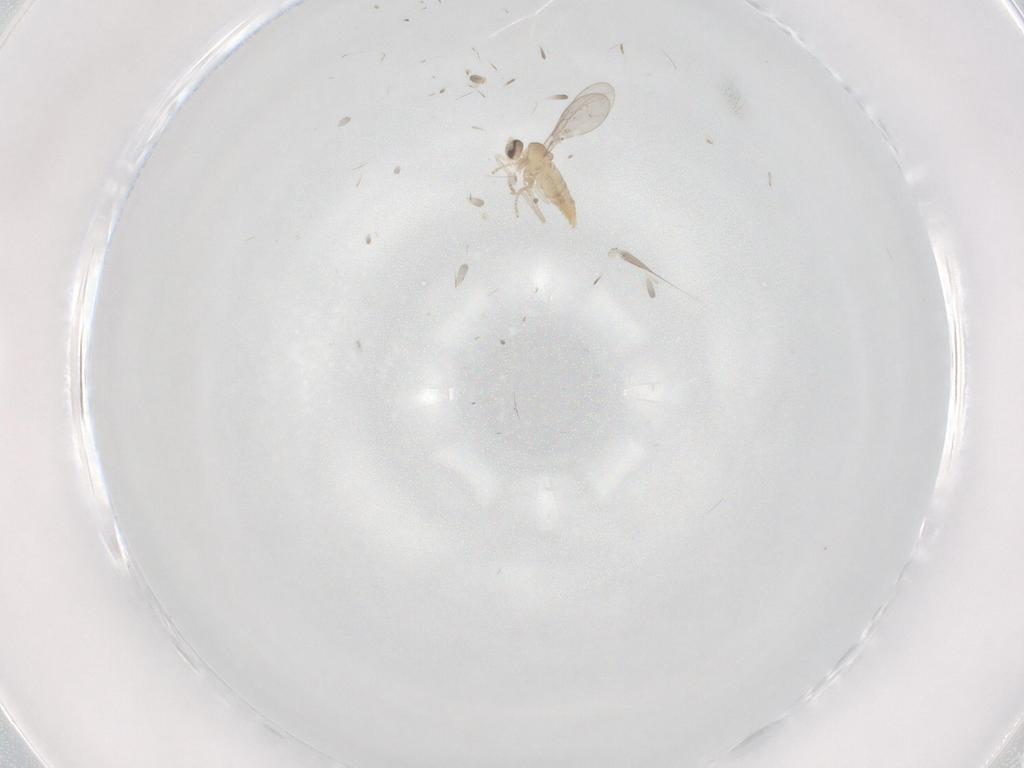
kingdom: Animalia
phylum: Arthropoda
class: Insecta
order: Diptera
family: Cecidomyiidae
